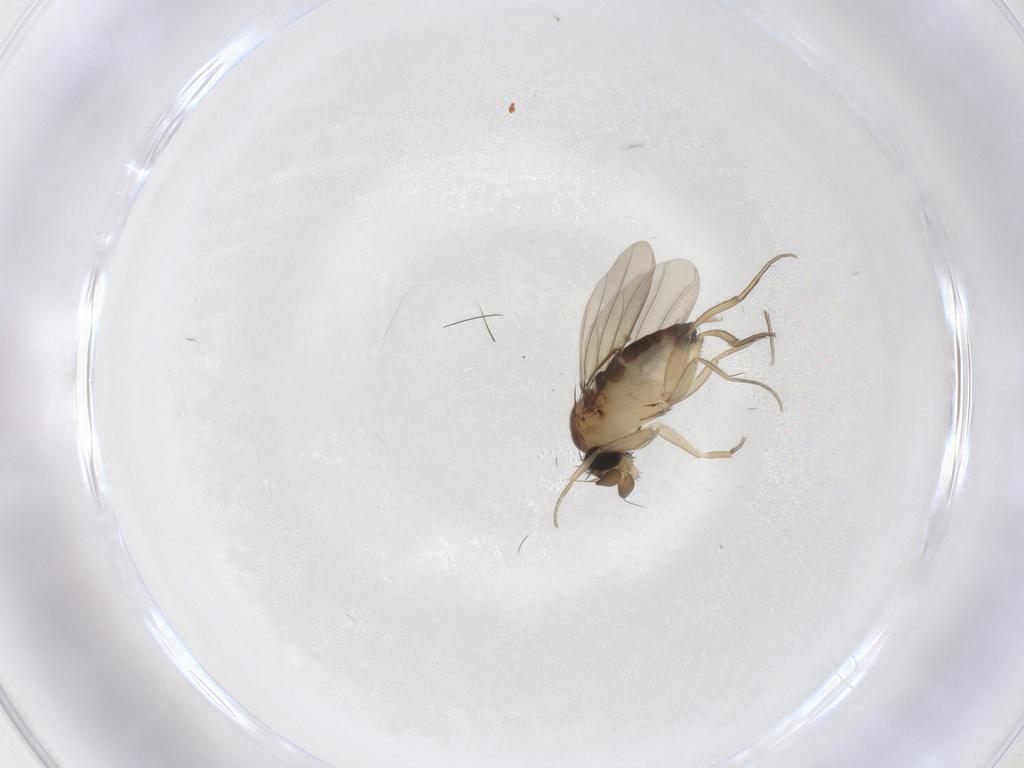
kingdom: Animalia
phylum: Arthropoda
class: Insecta
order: Diptera
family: Phoridae
